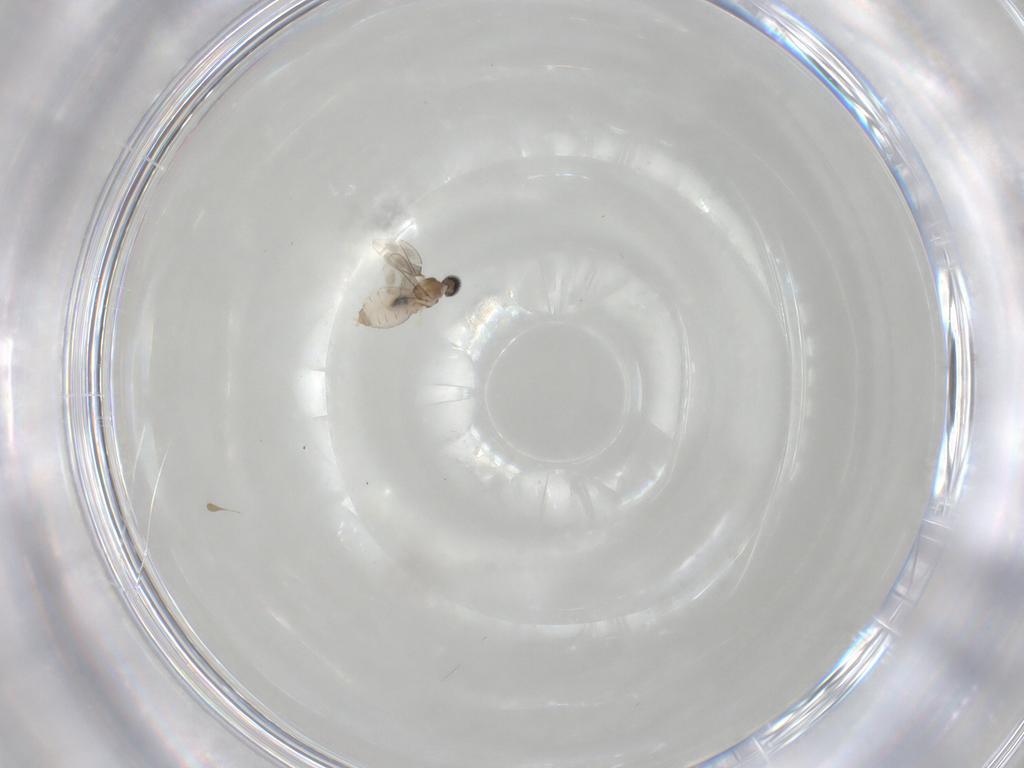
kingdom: Animalia
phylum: Arthropoda
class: Insecta
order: Diptera
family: Cecidomyiidae
